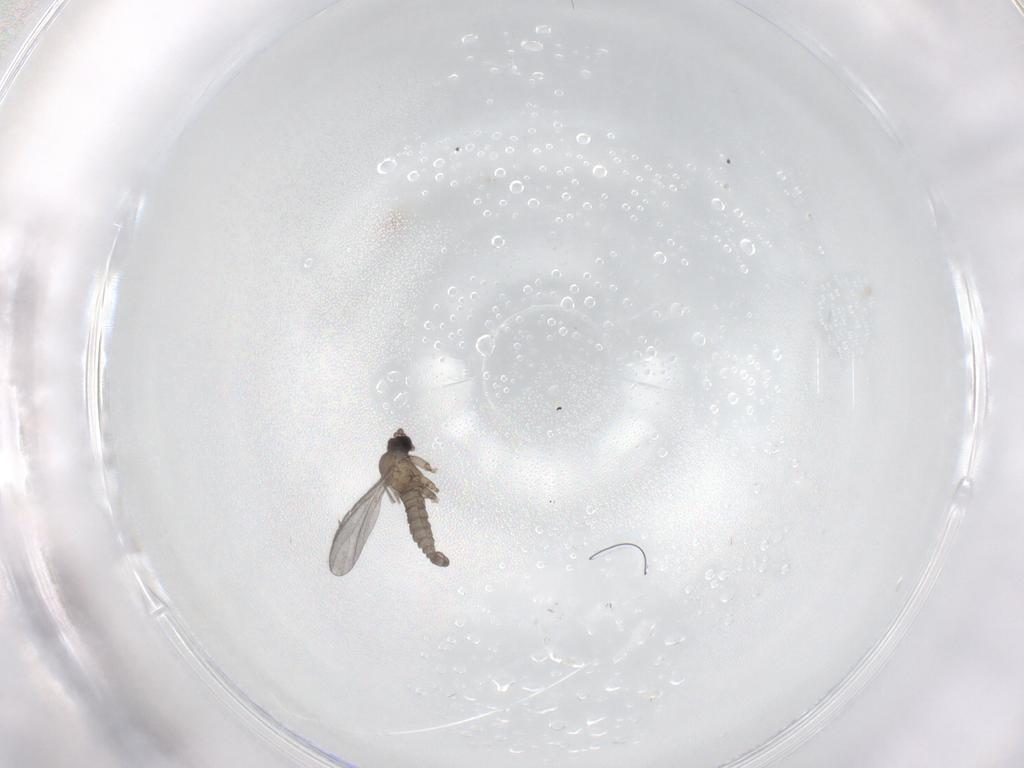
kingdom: Animalia
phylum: Arthropoda
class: Insecta
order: Diptera
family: Sciaridae
